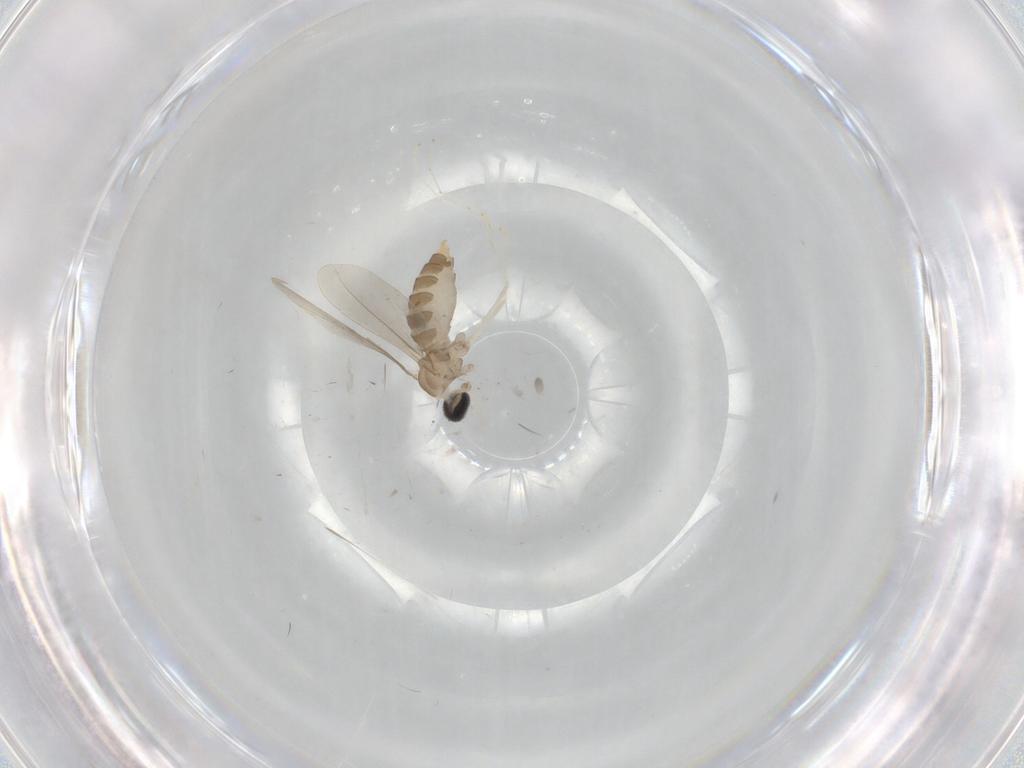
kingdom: Animalia
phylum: Arthropoda
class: Insecta
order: Diptera
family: Cecidomyiidae
